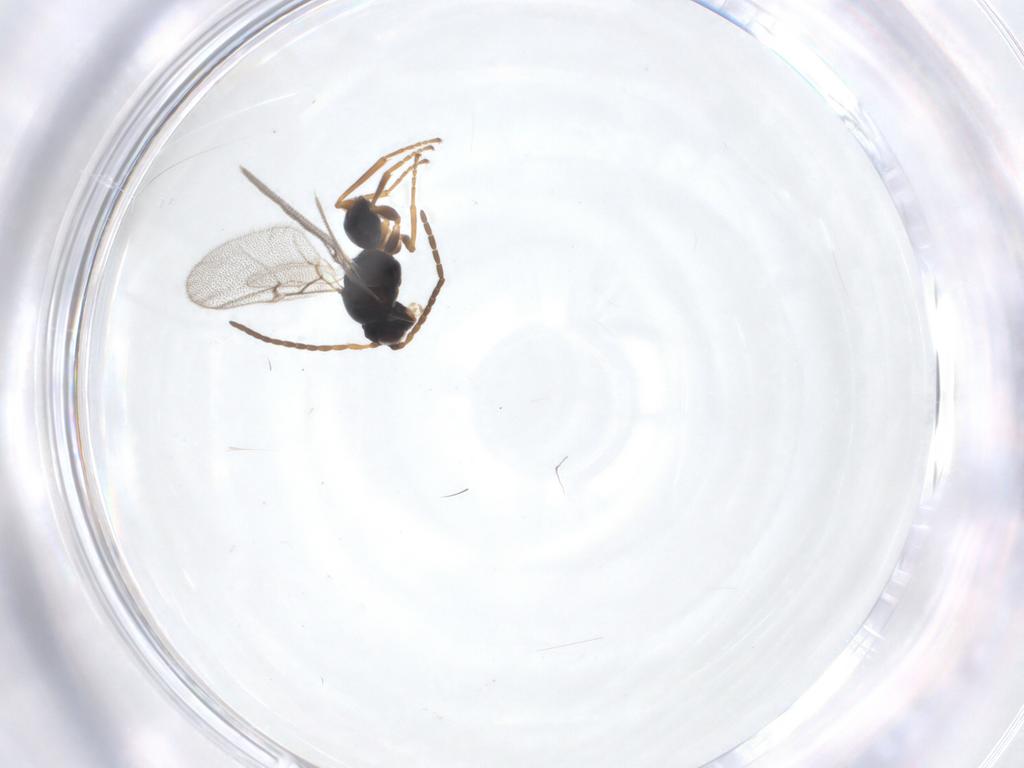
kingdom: Animalia
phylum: Arthropoda
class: Insecta
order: Hymenoptera
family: Cynipidae
